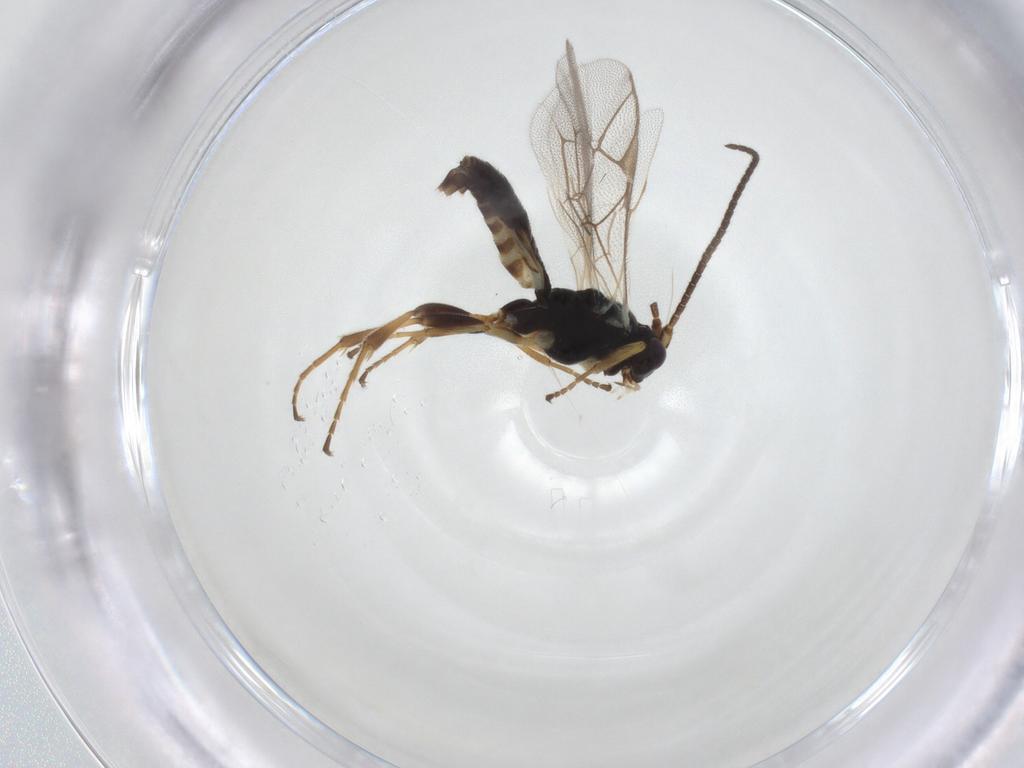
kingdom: Animalia
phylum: Arthropoda
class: Insecta
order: Hymenoptera
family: Ichneumonidae
